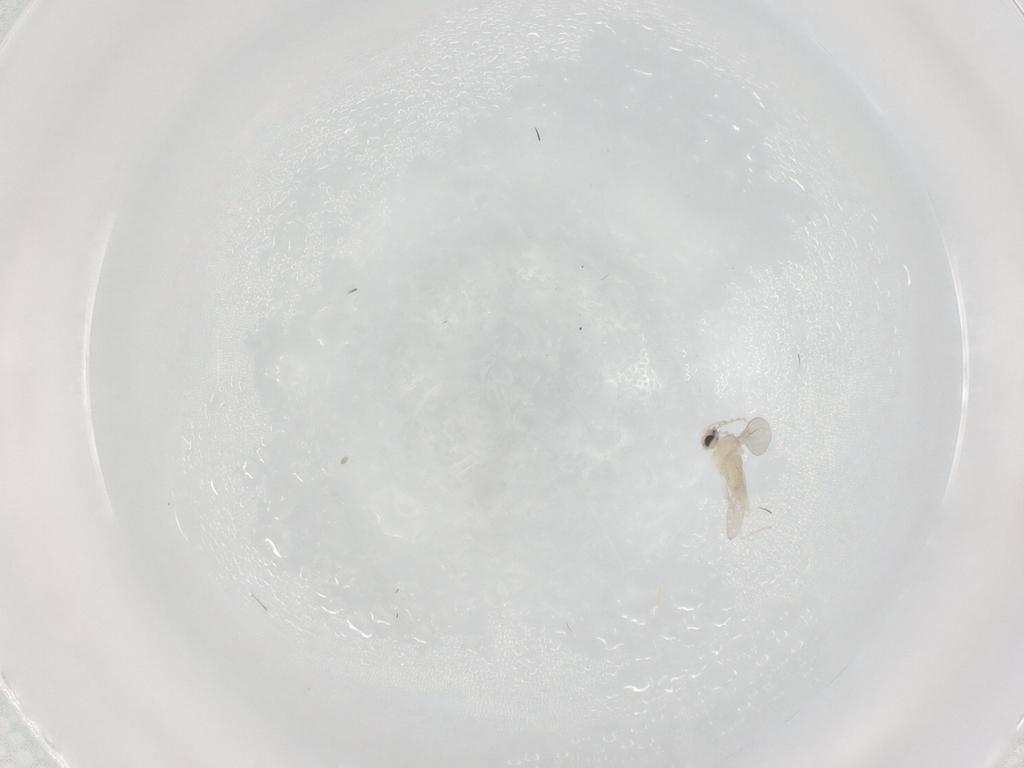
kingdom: Animalia
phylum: Arthropoda
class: Insecta
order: Diptera
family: Cecidomyiidae
